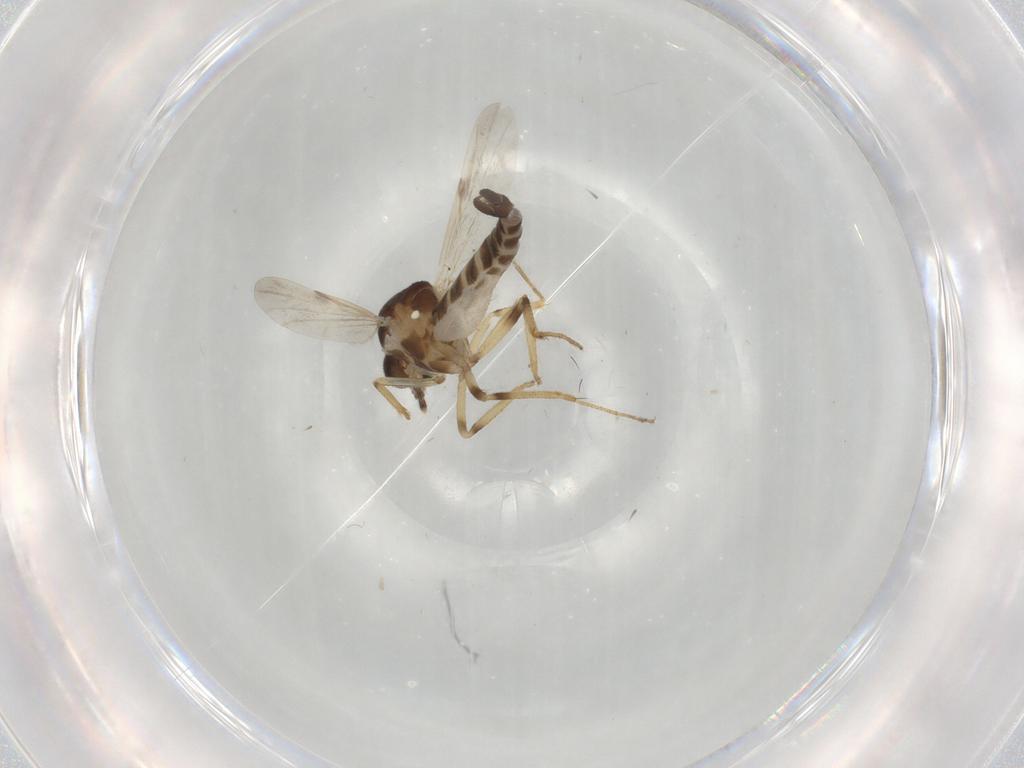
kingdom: Animalia
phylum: Arthropoda
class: Insecta
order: Diptera
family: Ceratopogonidae
